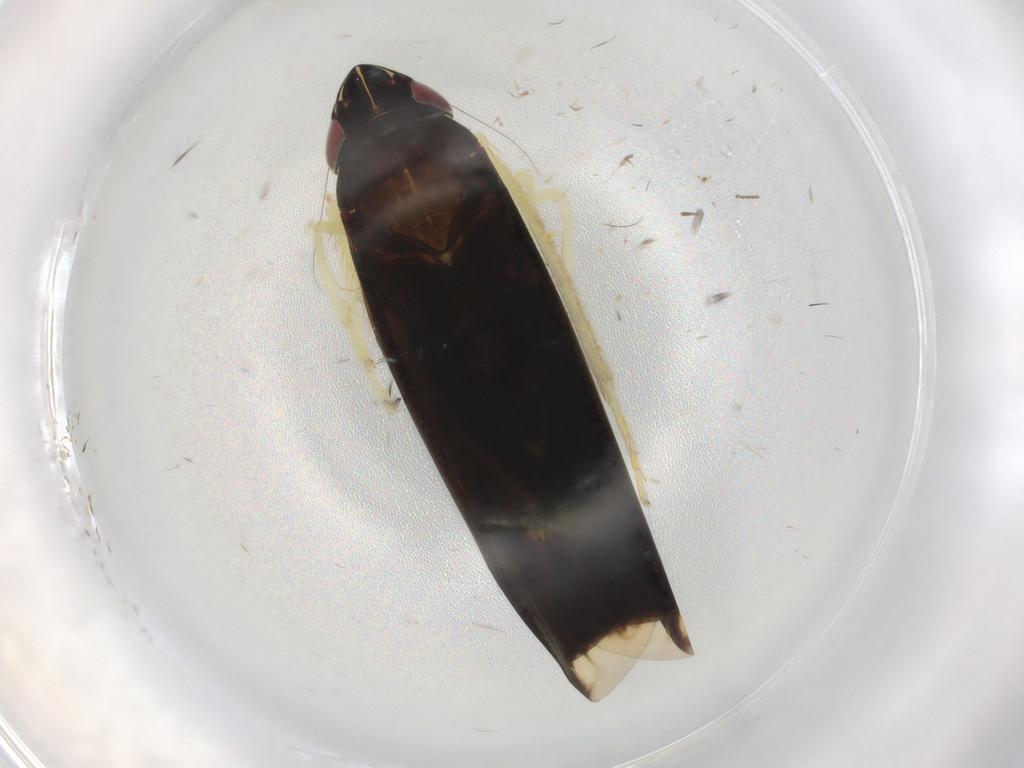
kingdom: Animalia
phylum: Arthropoda
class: Insecta
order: Hemiptera
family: Cicadellidae
